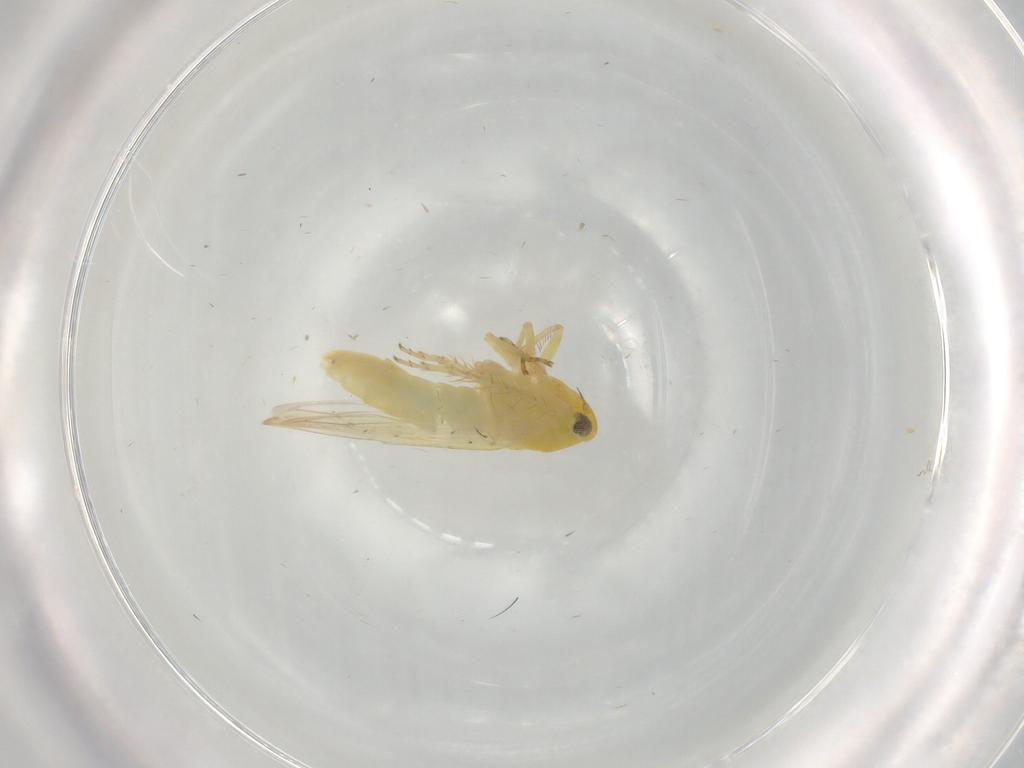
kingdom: Animalia
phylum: Arthropoda
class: Insecta
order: Hemiptera
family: Cicadellidae
